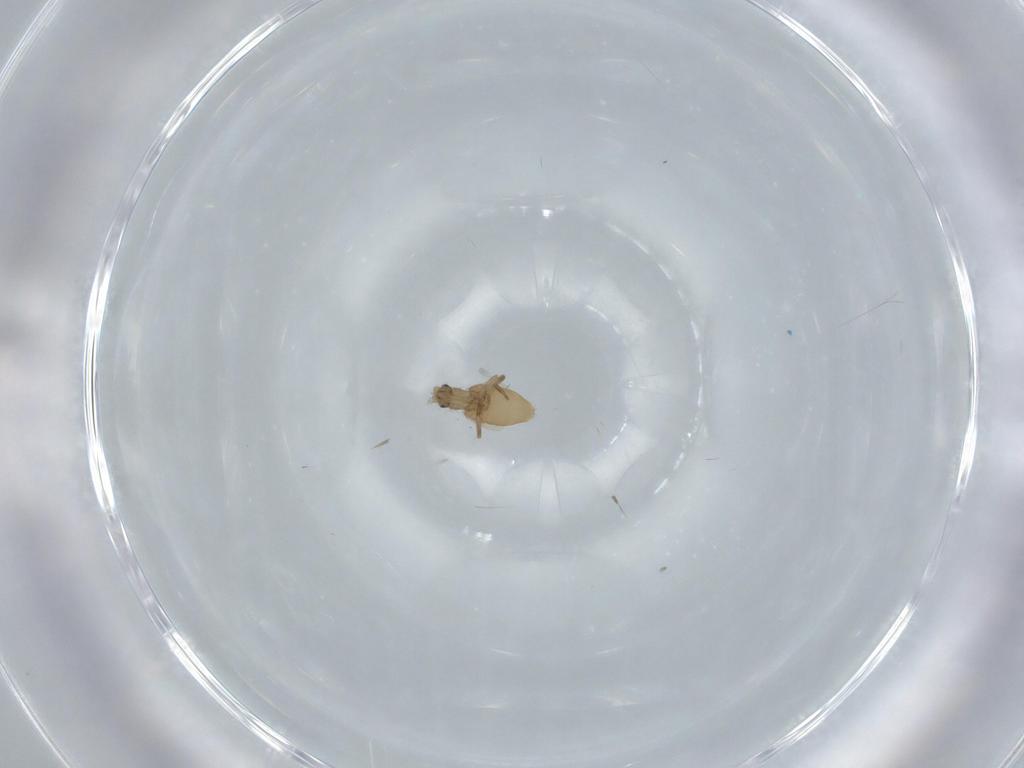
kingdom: Animalia
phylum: Arthropoda
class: Insecta
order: Diptera
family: Phoridae
